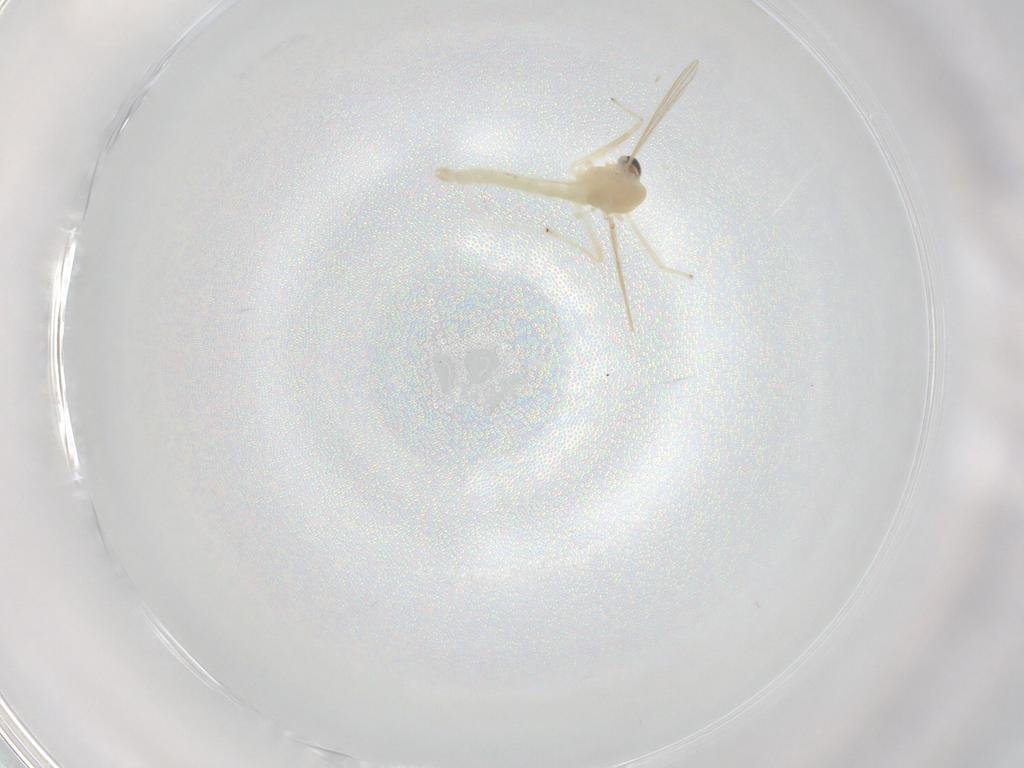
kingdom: Animalia
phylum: Arthropoda
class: Insecta
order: Diptera
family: Chironomidae
